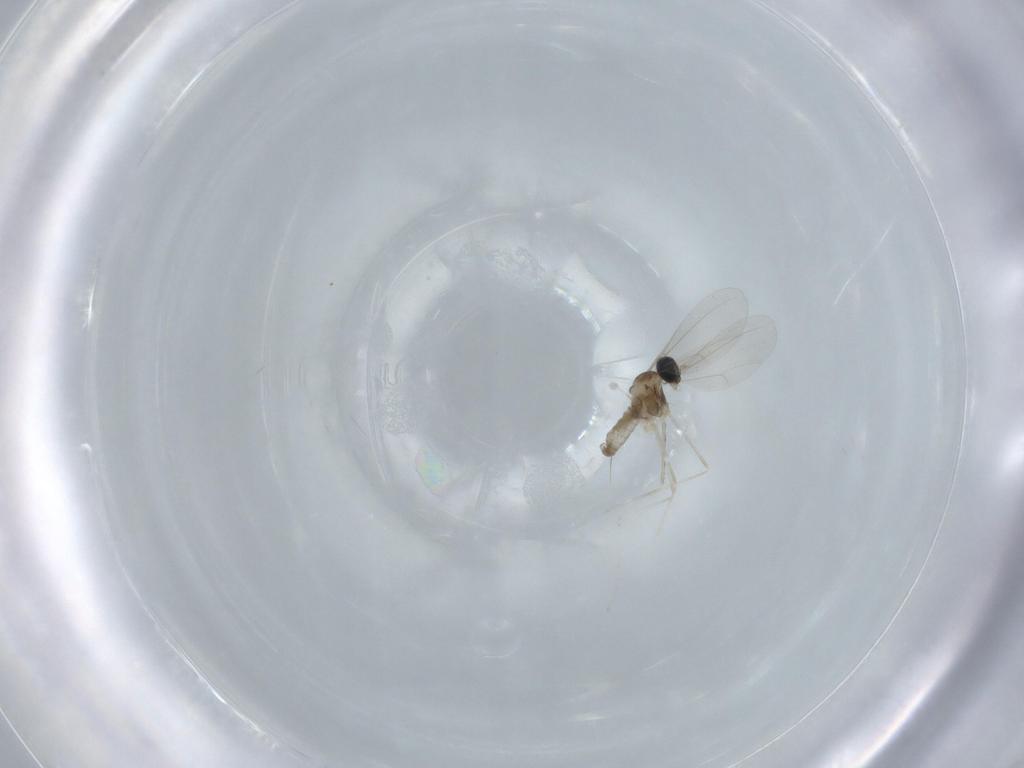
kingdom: Animalia
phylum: Arthropoda
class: Insecta
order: Diptera
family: Cecidomyiidae
